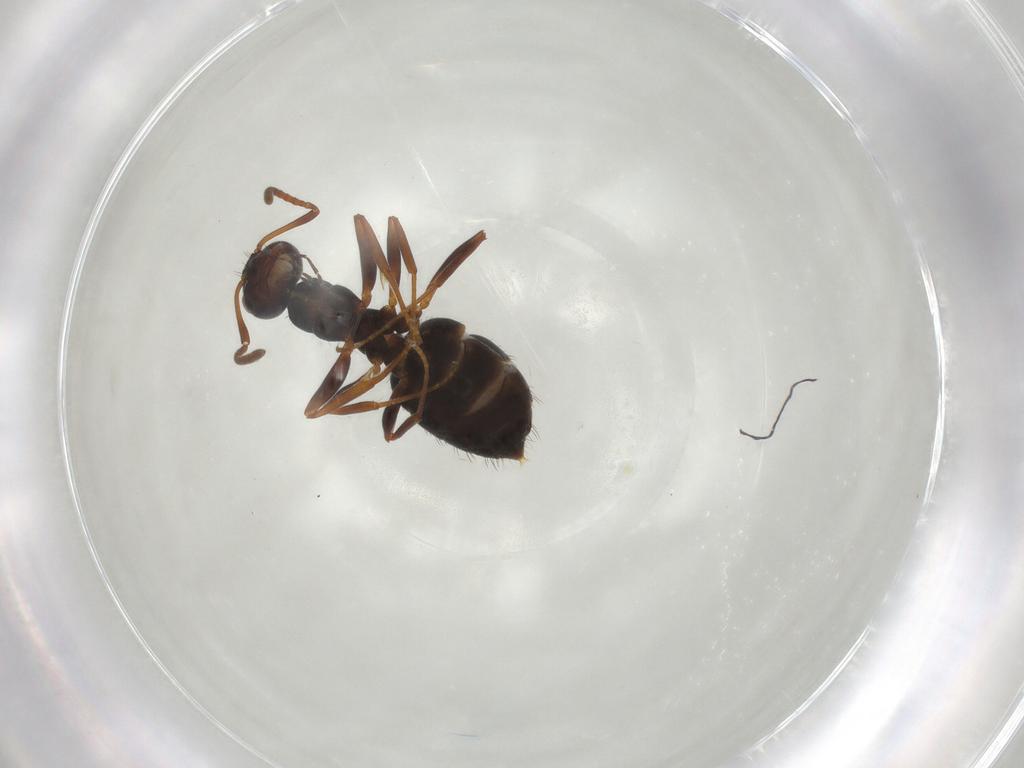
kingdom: Animalia
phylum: Arthropoda
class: Insecta
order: Hymenoptera
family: Formicidae
